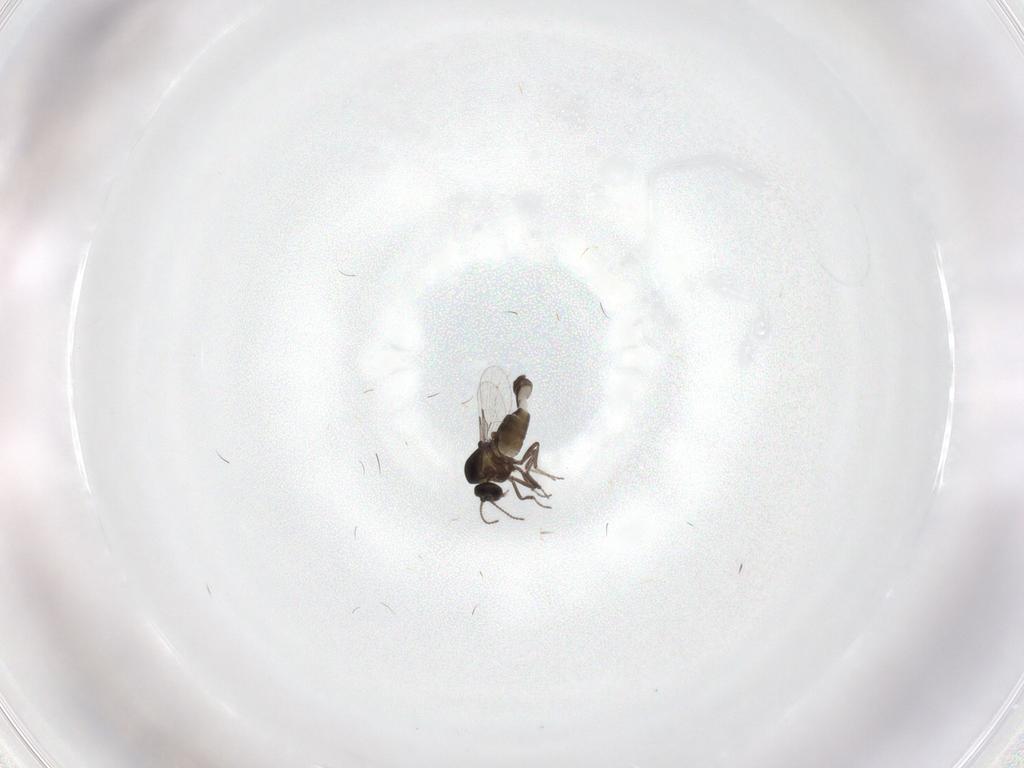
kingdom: Animalia
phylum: Arthropoda
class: Insecta
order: Diptera
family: Ceratopogonidae
